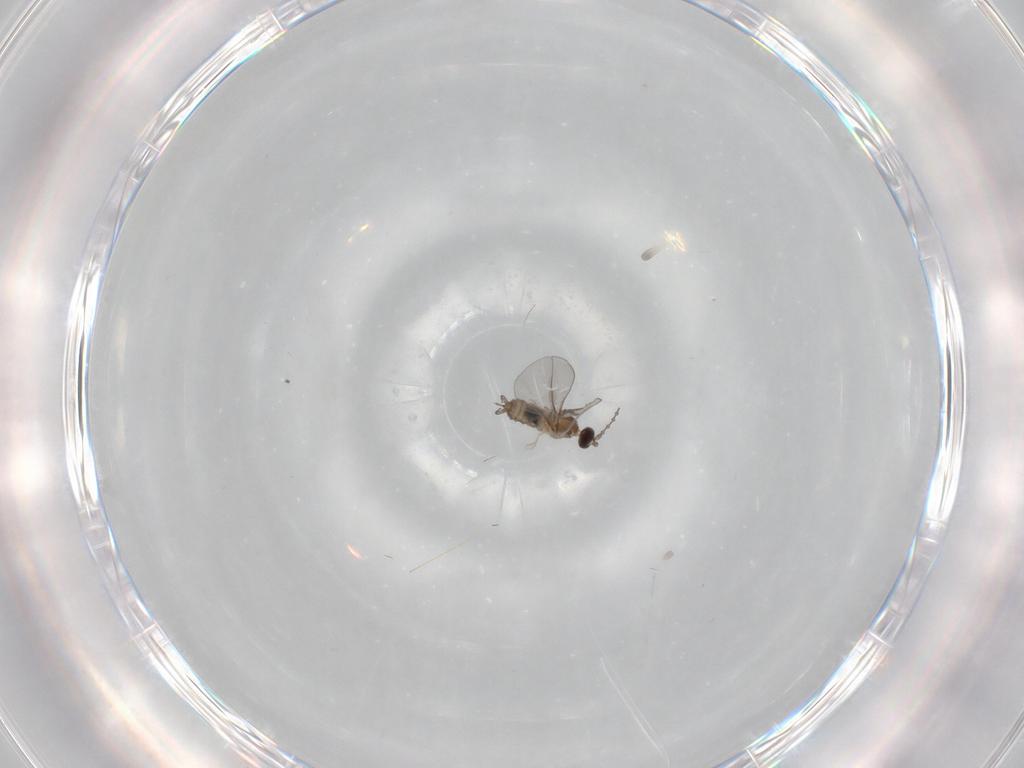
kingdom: Animalia
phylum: Arthropoda
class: Insecta
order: Diptera
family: Cecidomyiidae
